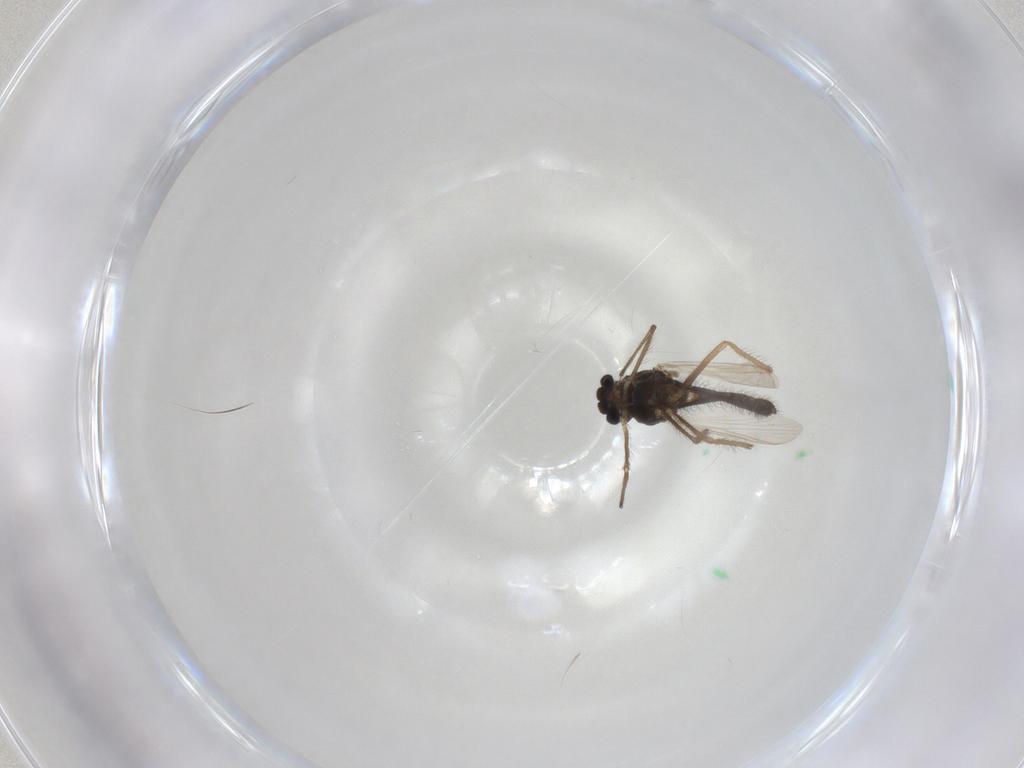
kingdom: Animalia
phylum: Arthropoda
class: Insecta
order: Diptera
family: Chironomidae
